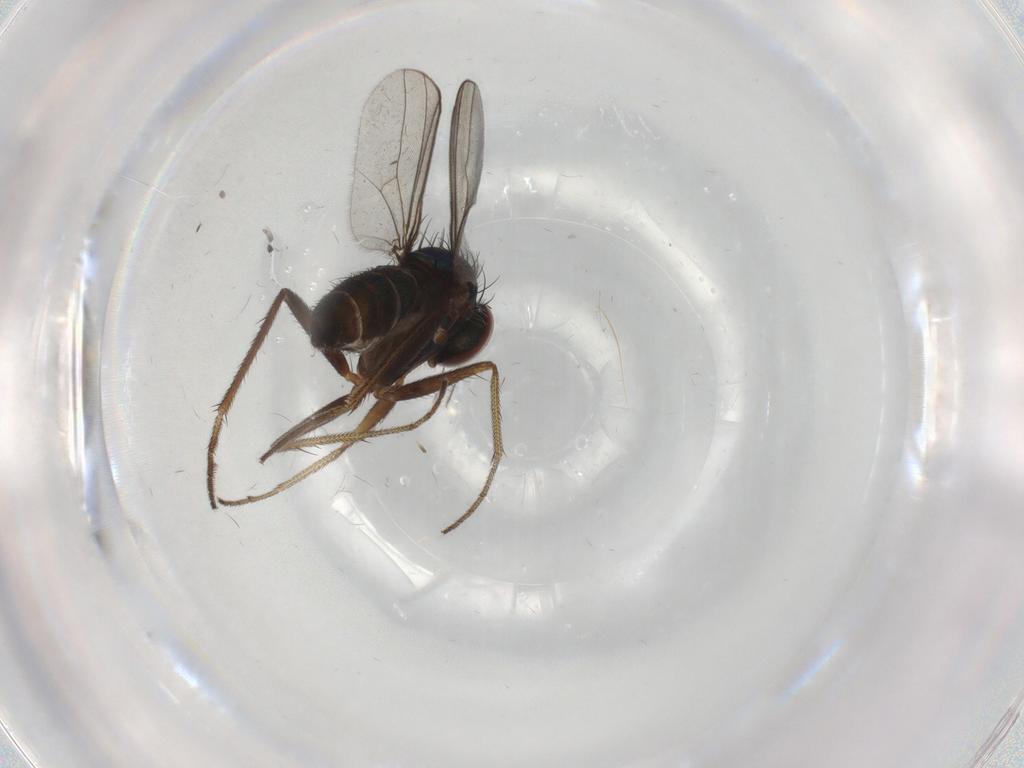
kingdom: Animalia
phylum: Arthropoda
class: Insecta
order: Diptera
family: Dolichopodidae
